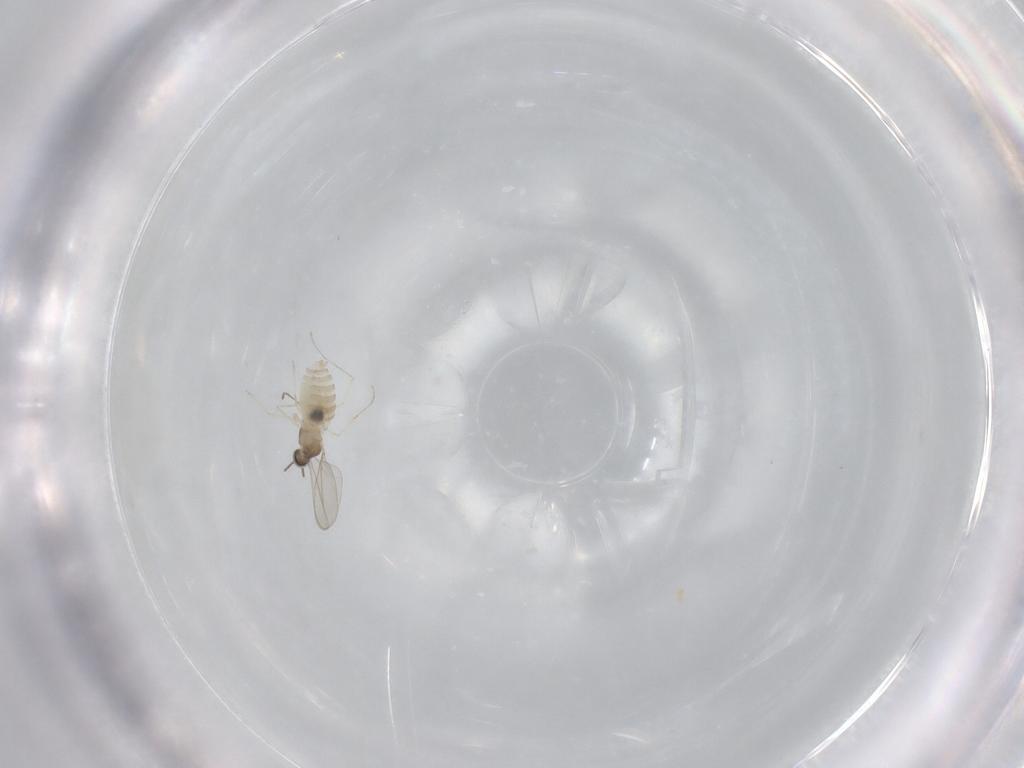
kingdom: Animalia
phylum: Arthropoda
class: Insecta
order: Diptera
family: Cecidomyiidae
